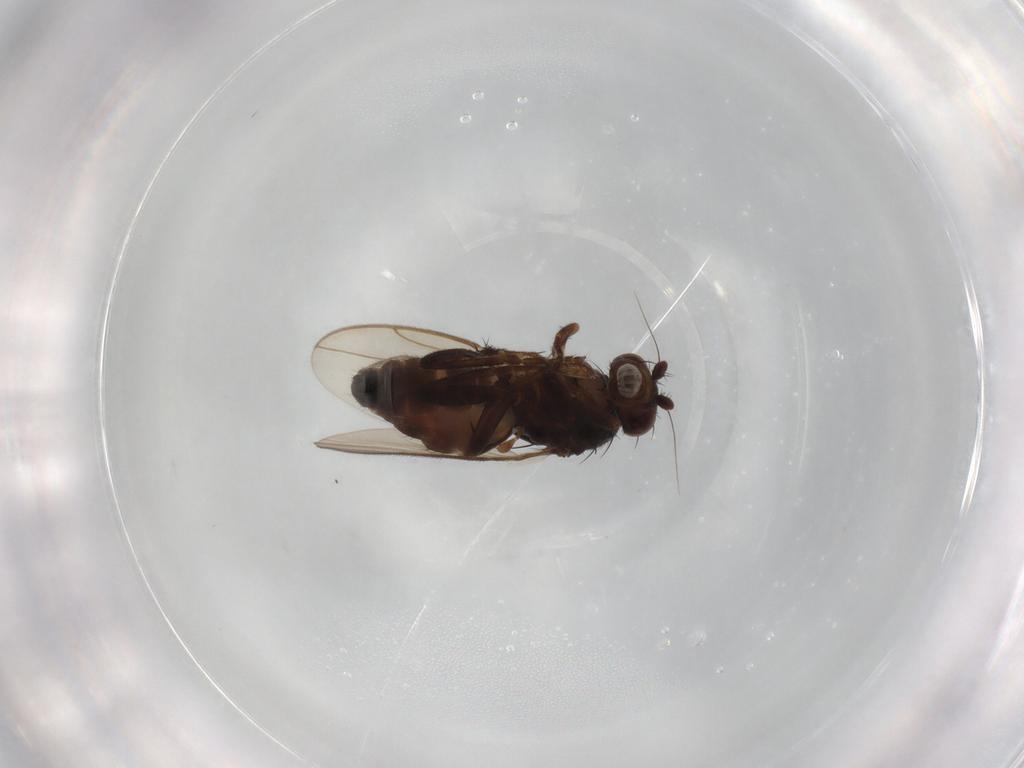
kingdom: Animalia
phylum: Arthropoda
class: Insecta
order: Diptera
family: Sphaeroceridae
